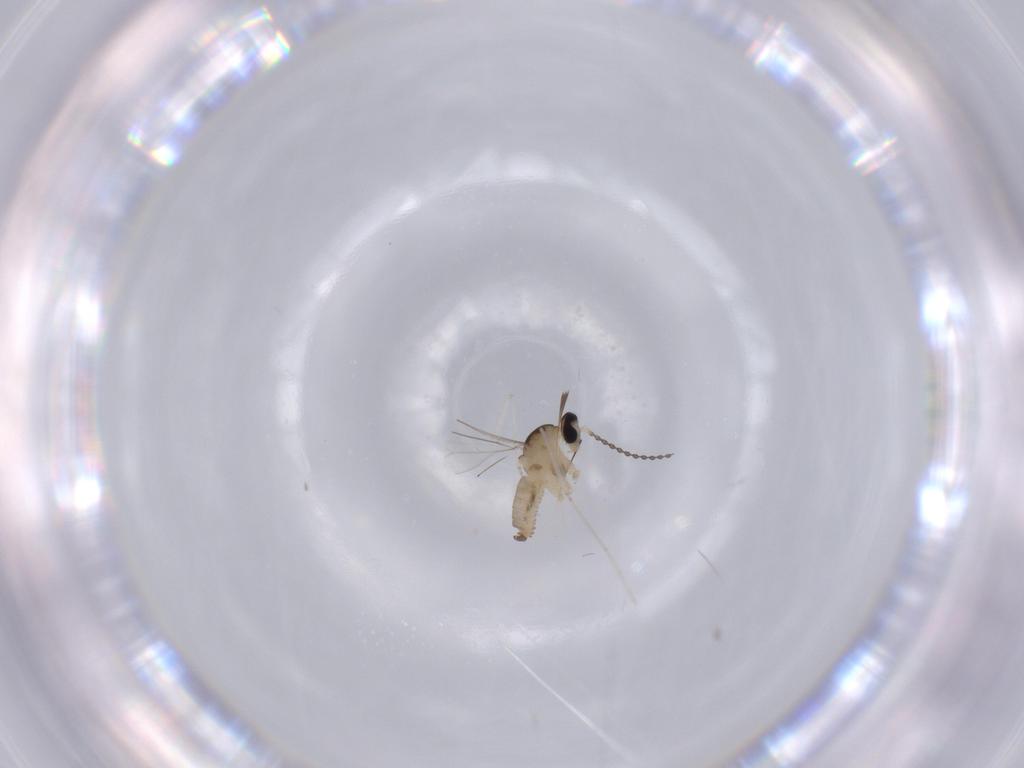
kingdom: Animalia
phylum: Arthropoda
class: Insecta
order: Diptera
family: Cecidomyiidae
